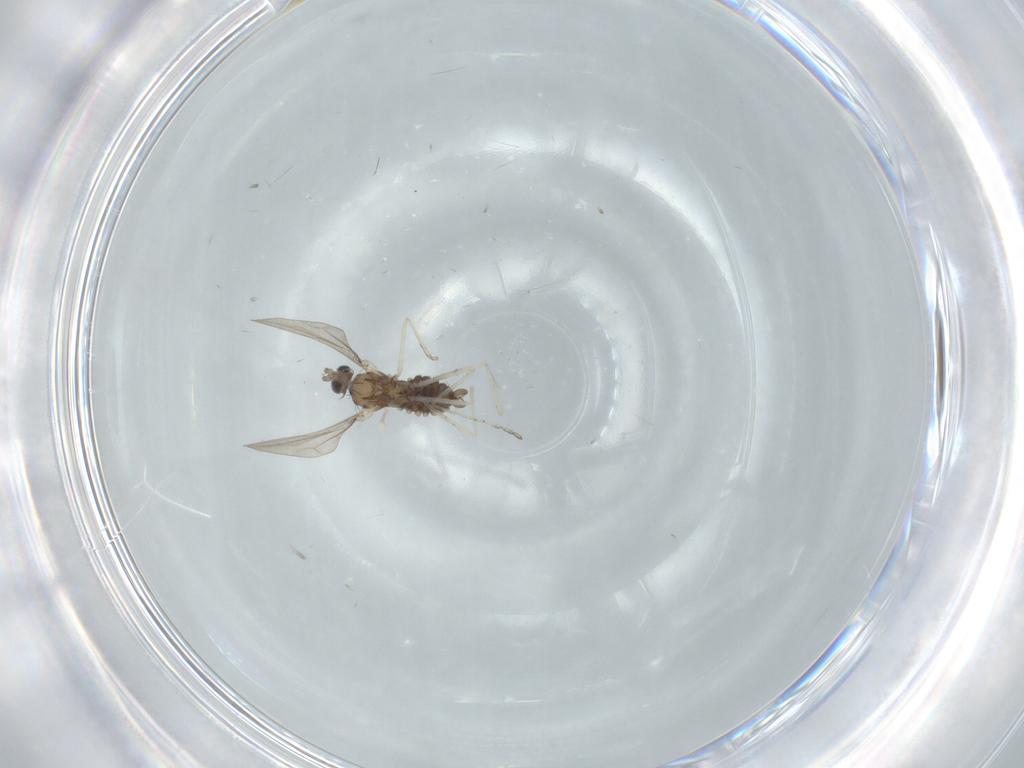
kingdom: Animalia
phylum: Arthropoda
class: Insecta
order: Diptera
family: Cecidomyiidae
